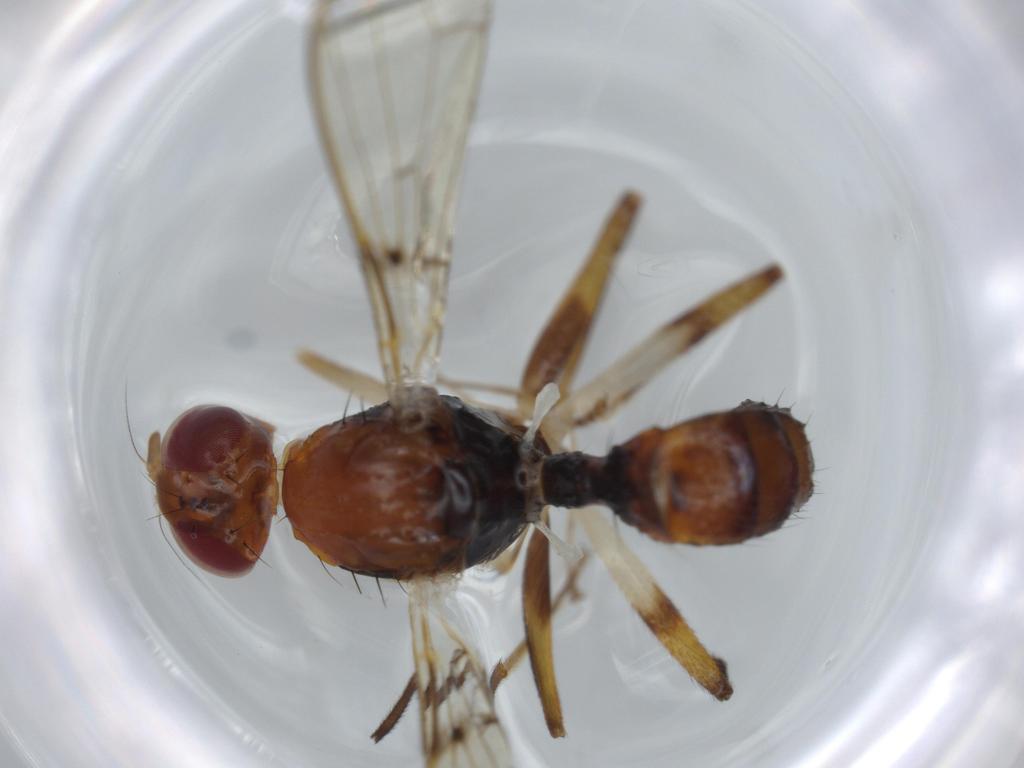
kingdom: Animalia
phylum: Arthropoda
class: Insecta
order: Diptera
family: Richardiidae
